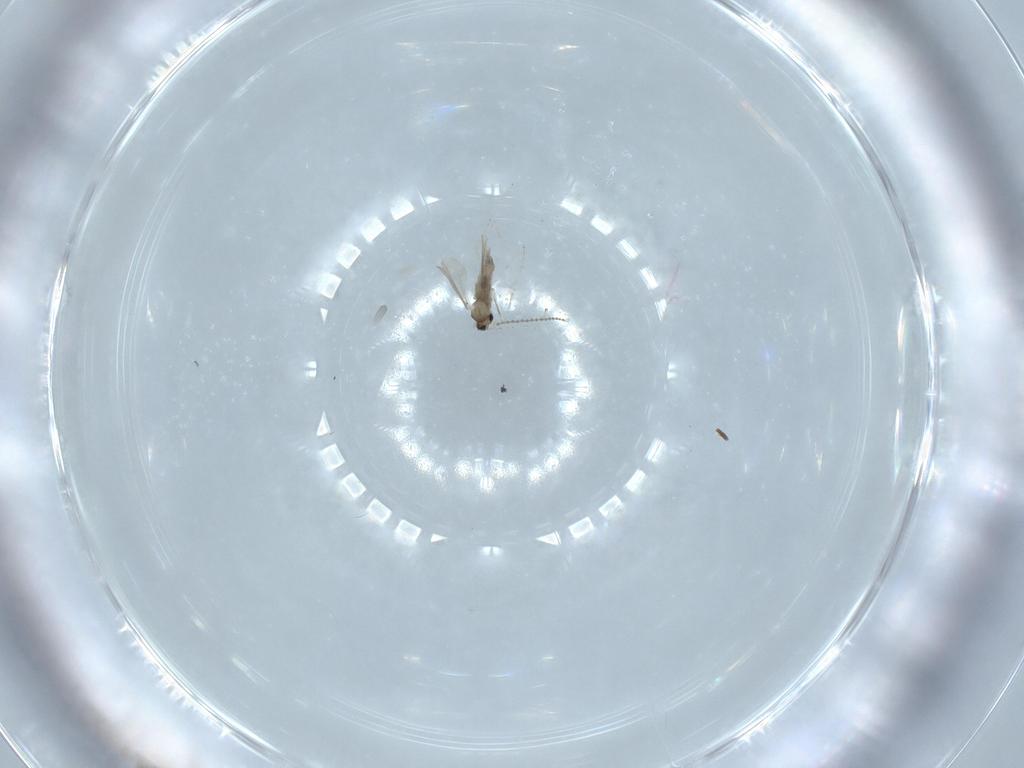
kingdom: Animalia
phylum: Arthropoda
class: Insecta
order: Diptera
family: Cecidomyiidae
